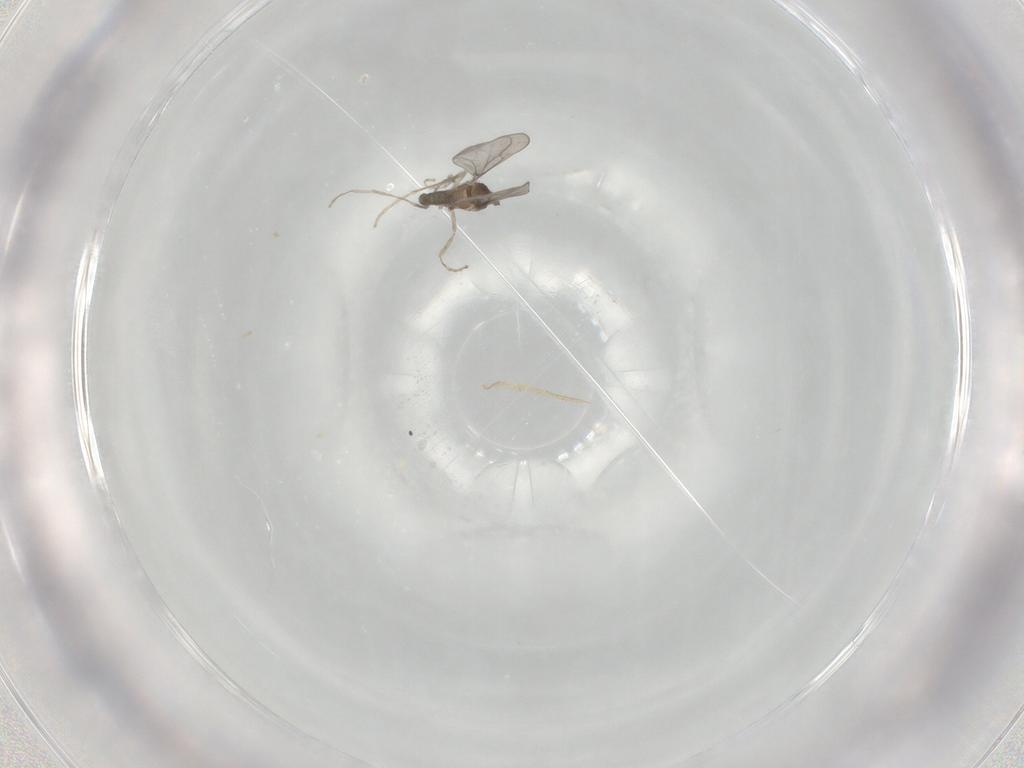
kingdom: Animalia
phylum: Arthropoda
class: Insecta
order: Diptera
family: Cecidomyiidae
